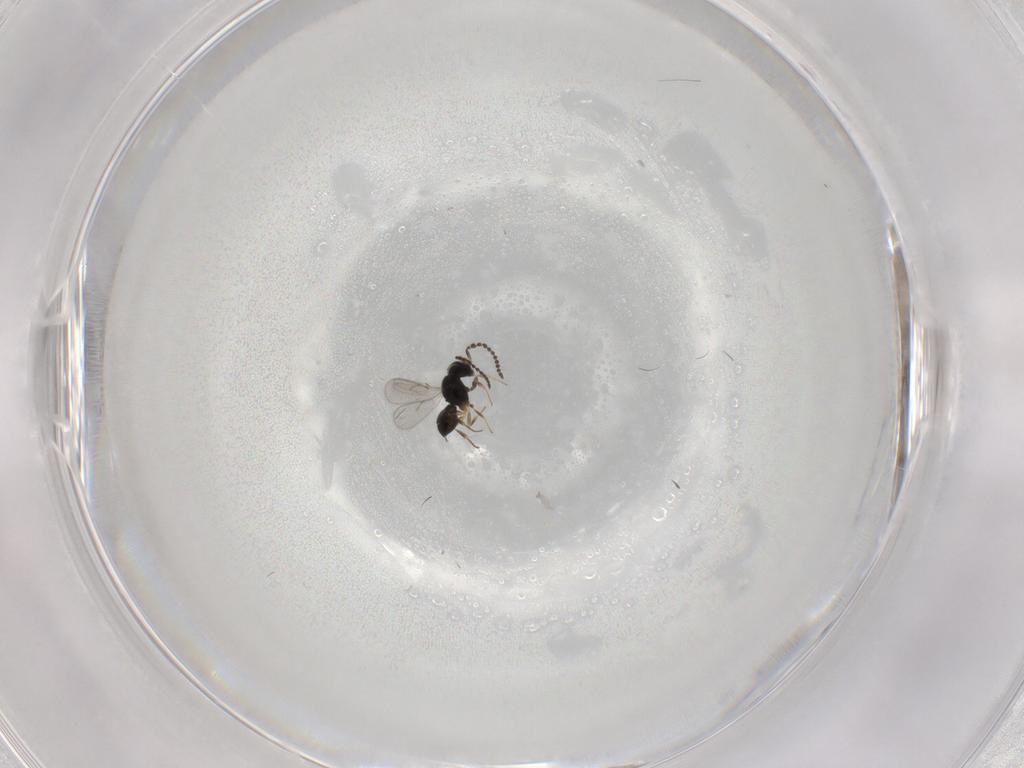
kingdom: Animalia
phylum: Arthropoda
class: Insecta
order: Hymenoptera
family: Scelionidae
